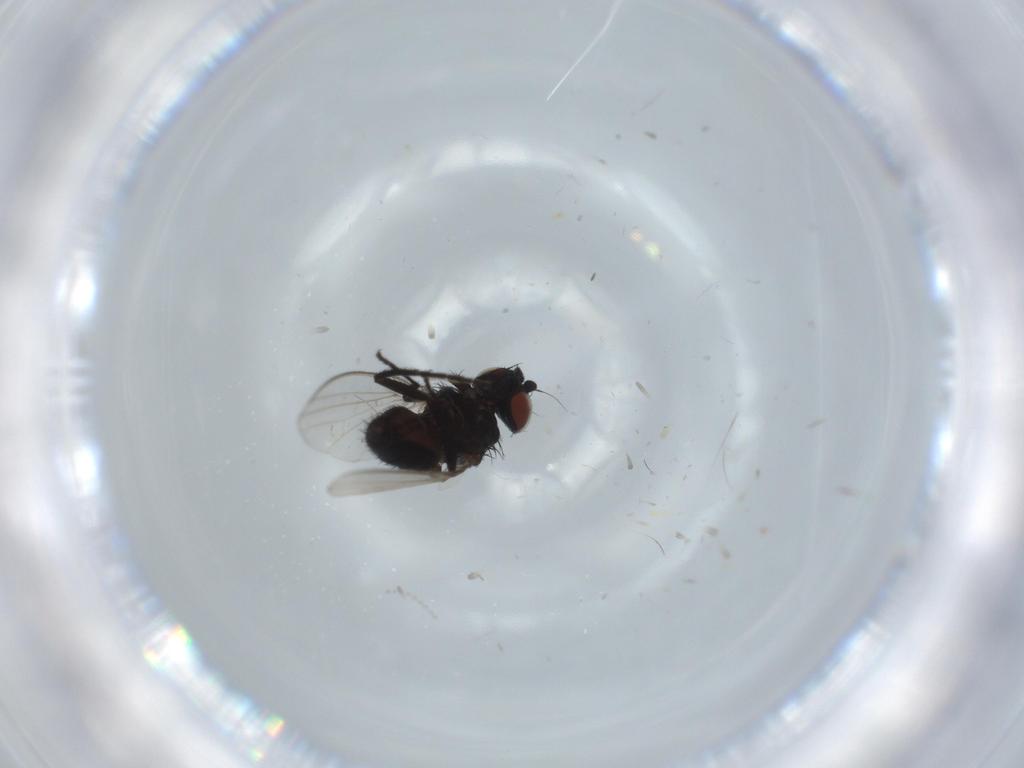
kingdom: Animalia
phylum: Arthropoda
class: Insecta
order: Diptera
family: Milichiidae
